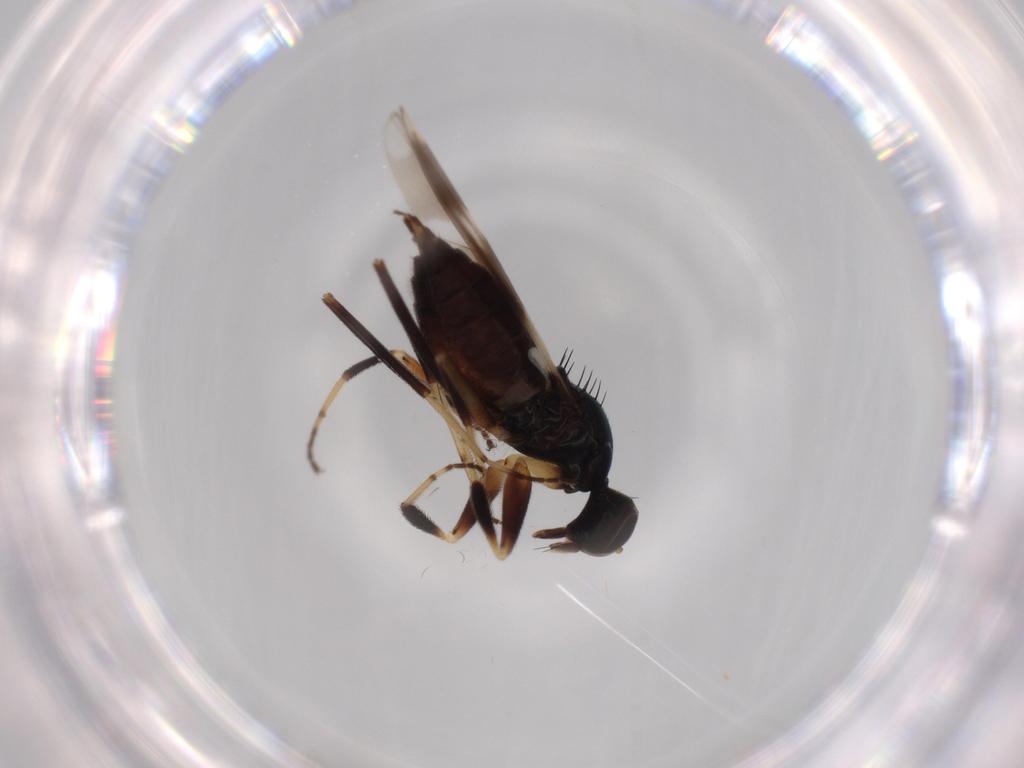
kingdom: Animalia
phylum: Arthropoda
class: Insecta
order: Diptera
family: Hybotidae
